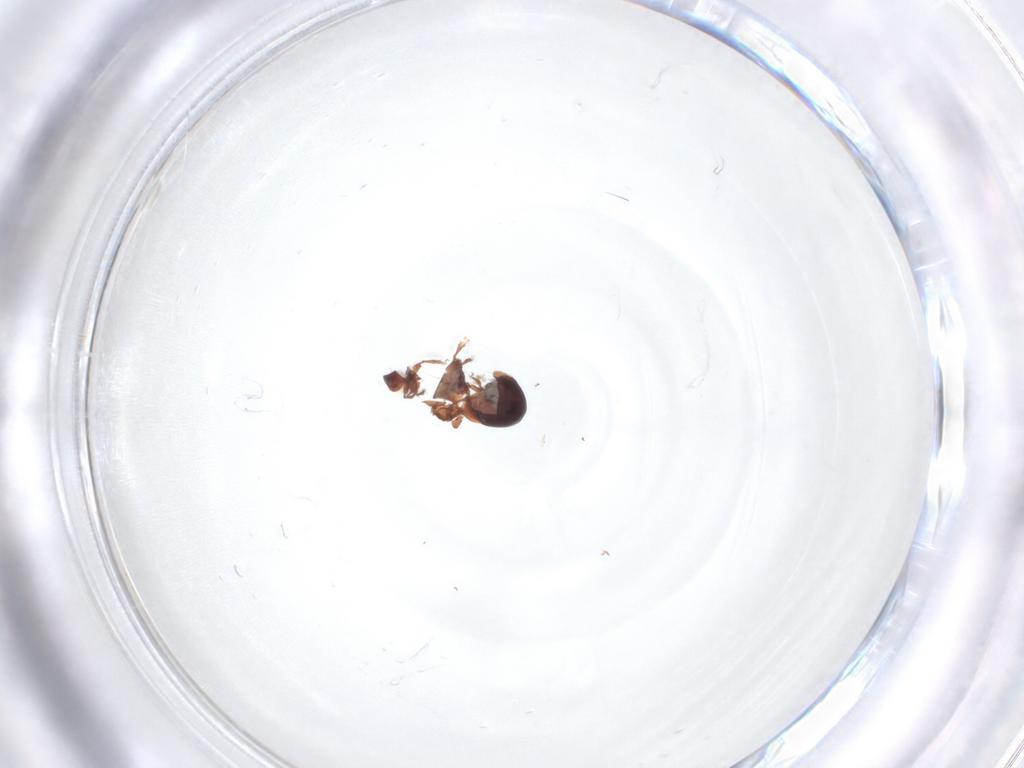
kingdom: Animalia
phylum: Arthropoda
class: Arachnida
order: Sarcoptiformes
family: Ceratozetidae
